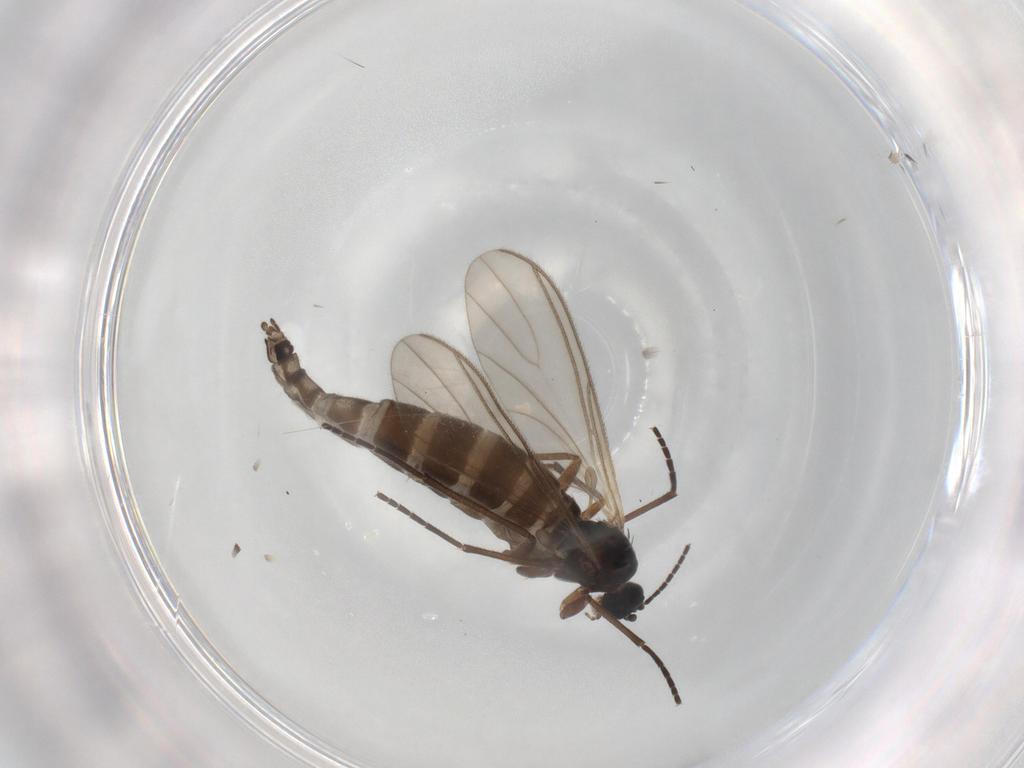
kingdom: Animalia
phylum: Arthropoda
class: Insecta
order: Diptera
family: Sciaridae
